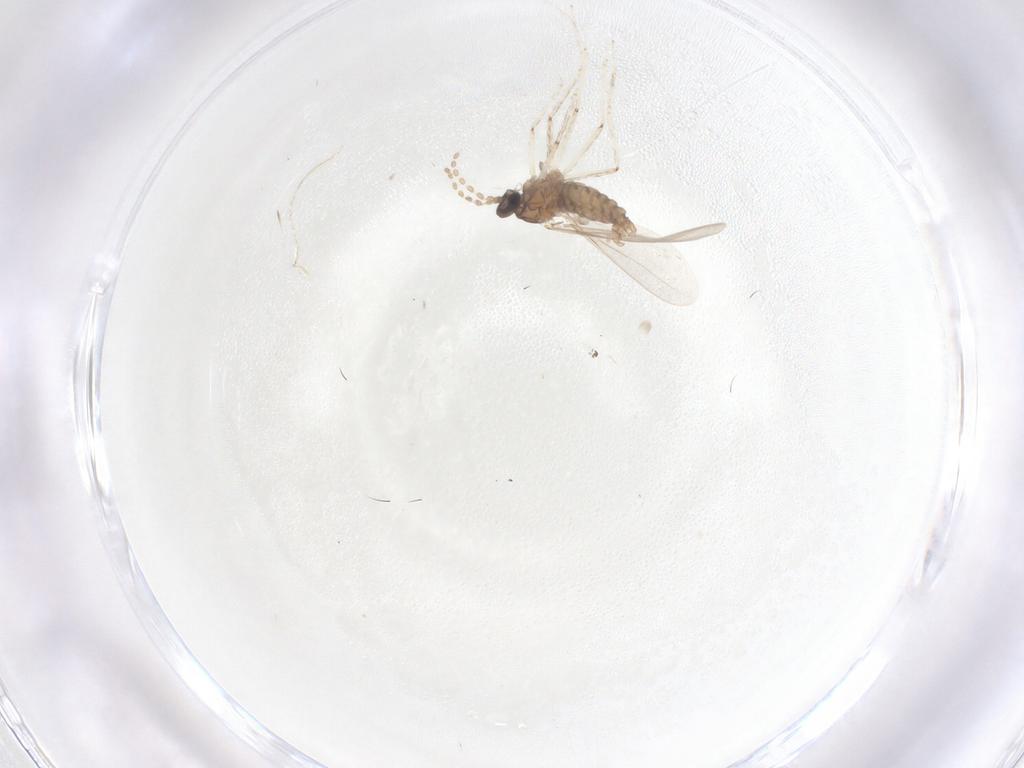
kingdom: Animalia
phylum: Arthropoda
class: Insecta
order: Diptera
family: Cecidomyiidae
